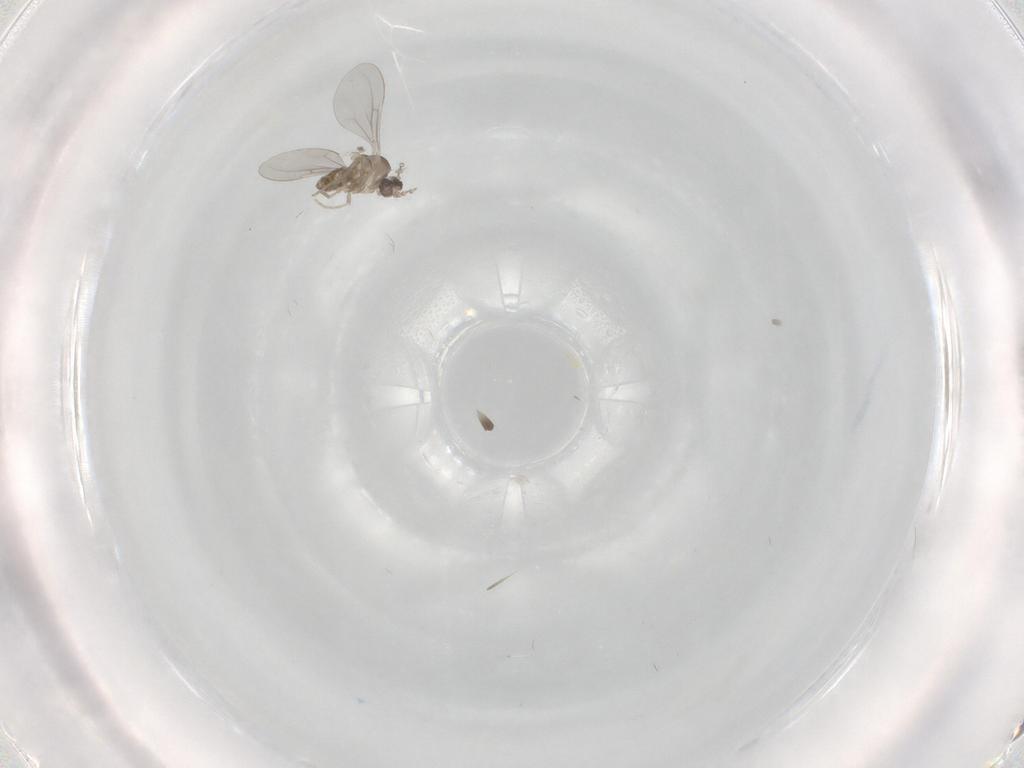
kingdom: Animalia
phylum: Arthropoda
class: Insecta
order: Diptera
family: Cecidomyiidae
